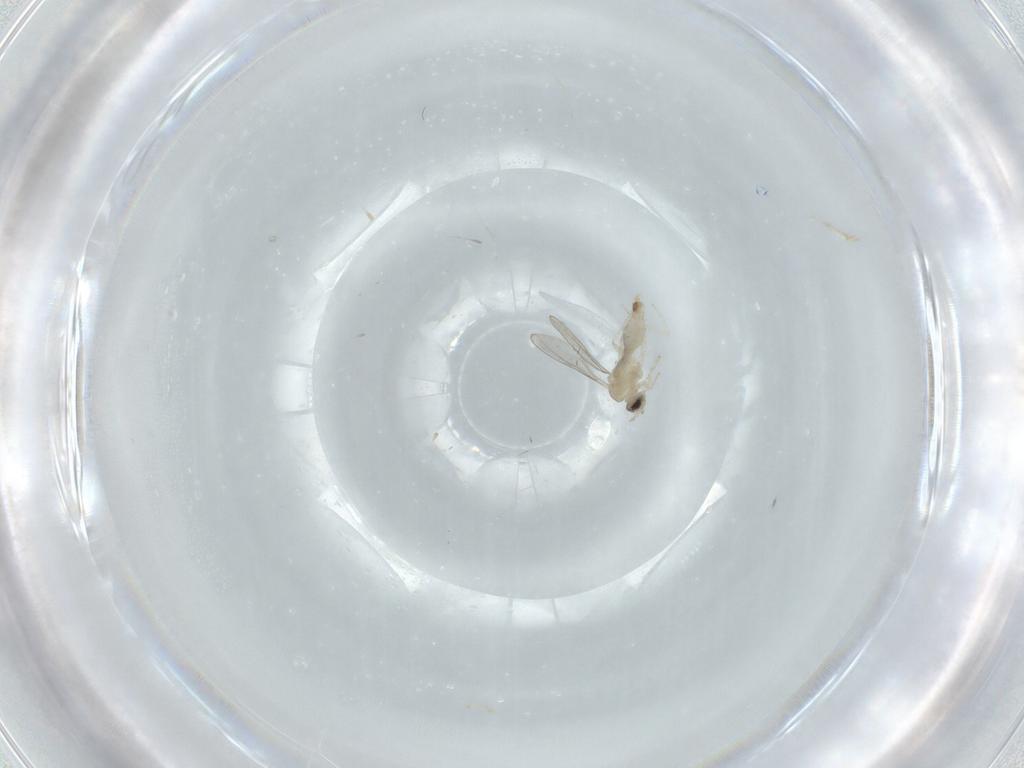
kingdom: Animalia
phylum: Arthropoda
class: Insecta
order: Diptera
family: Cecidomyiidae
